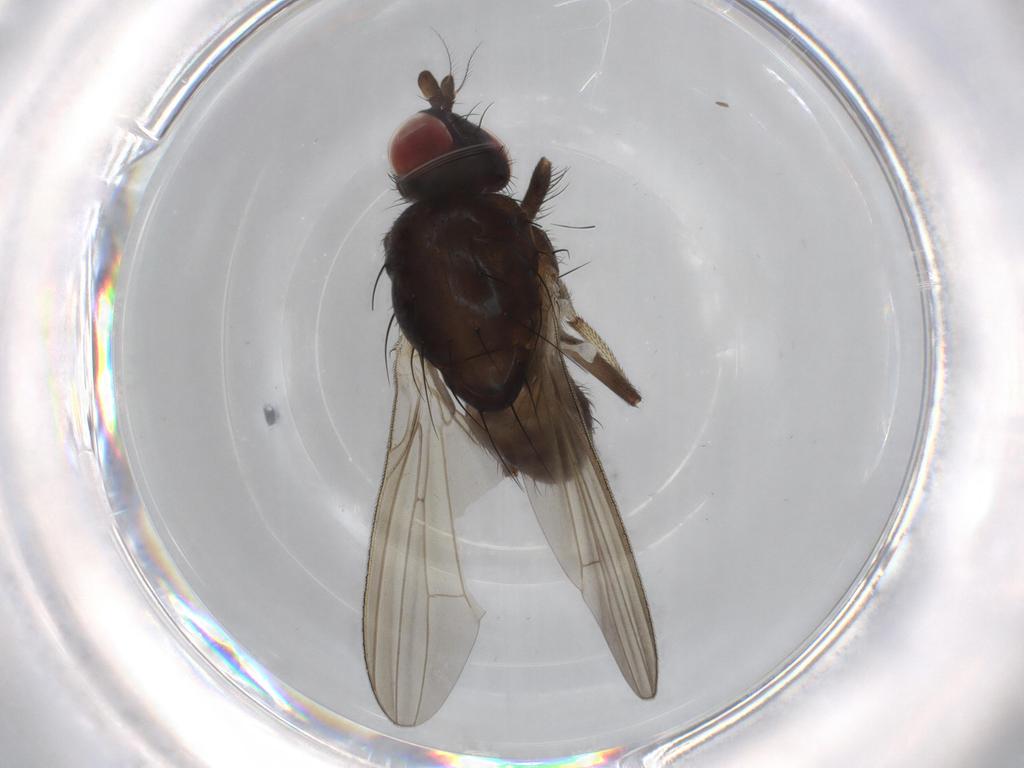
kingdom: Animalia
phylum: Arthropoda
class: Insecta
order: Diptera
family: Lauxaniidae
